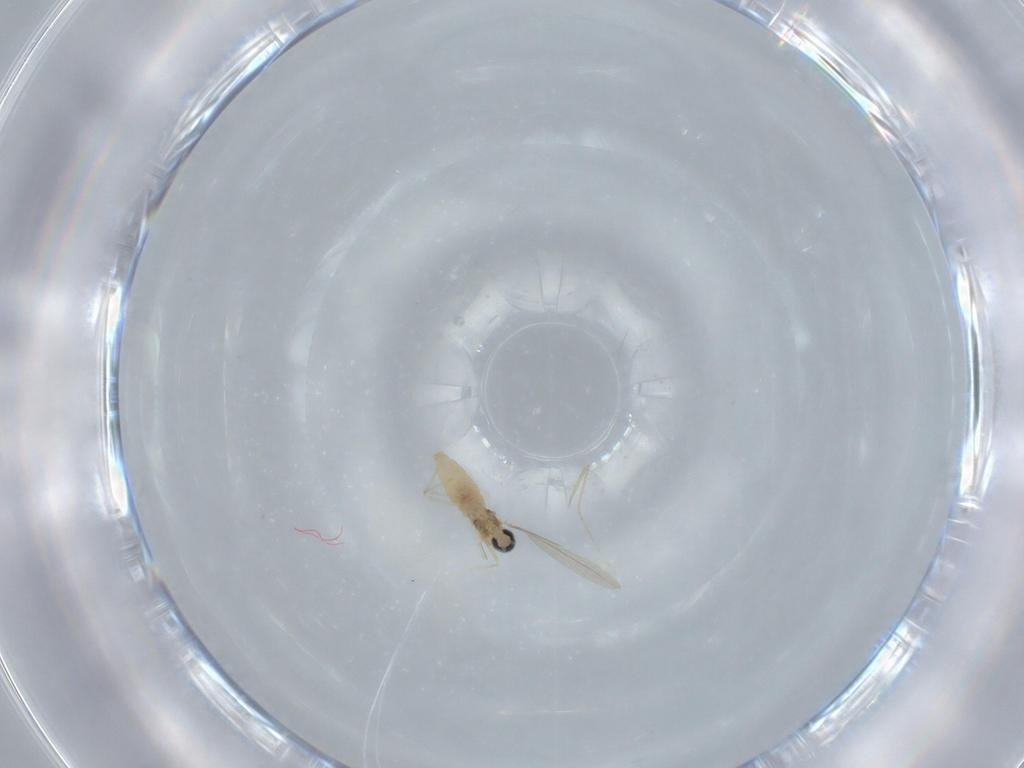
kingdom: Animalia
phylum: Arthropoda
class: Insecta
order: Diptera
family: Cecidomyiidae
